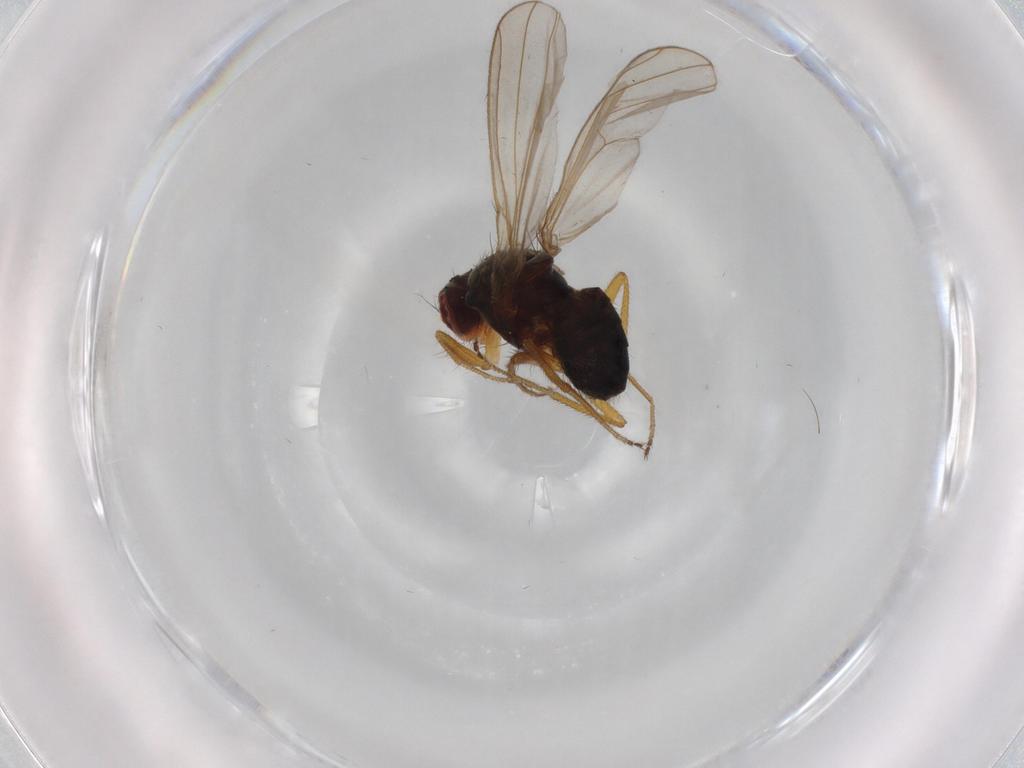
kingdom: Animalia
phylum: Arthropoda
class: Insecta
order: Diptera
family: Drosophilidae
